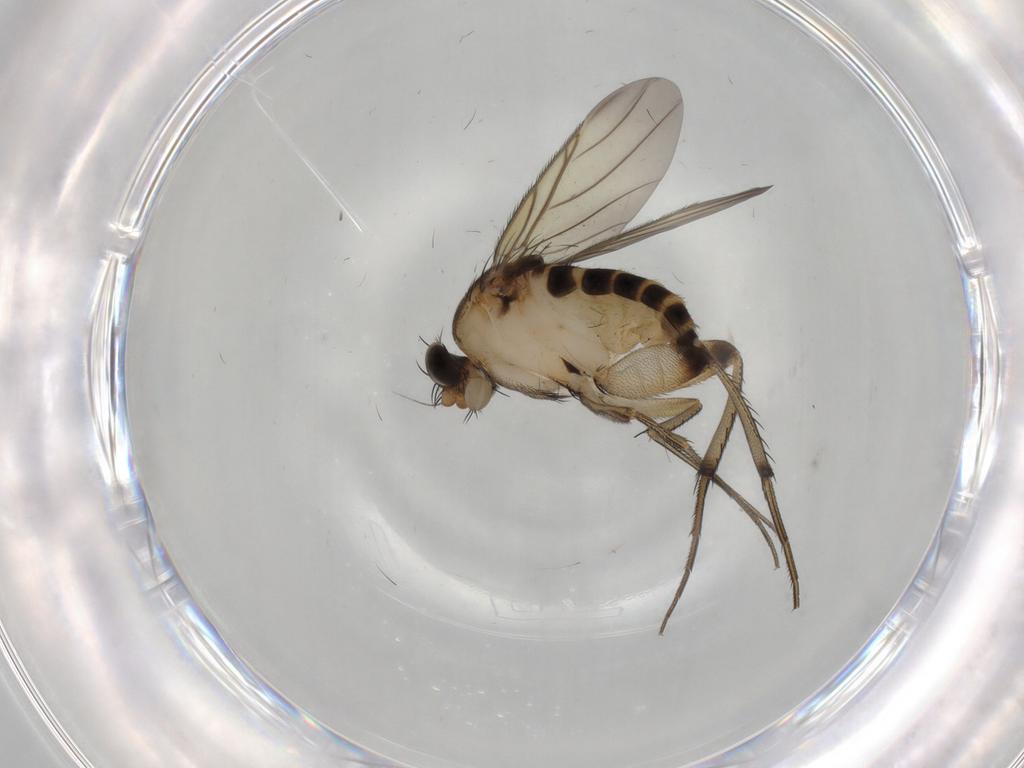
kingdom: Animalia
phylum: Arthropoda
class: Insecta
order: Diptera
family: Phoridae
